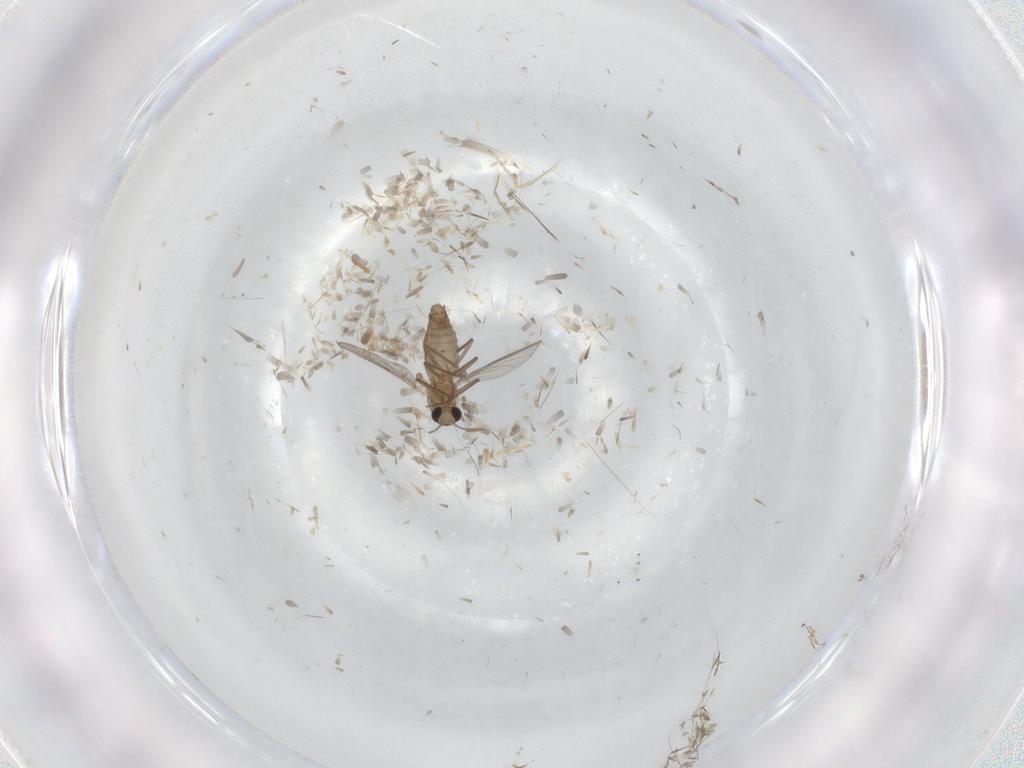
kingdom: Animalia
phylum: Arthropoda
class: Insecta
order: Diptera
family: Chironomidae
